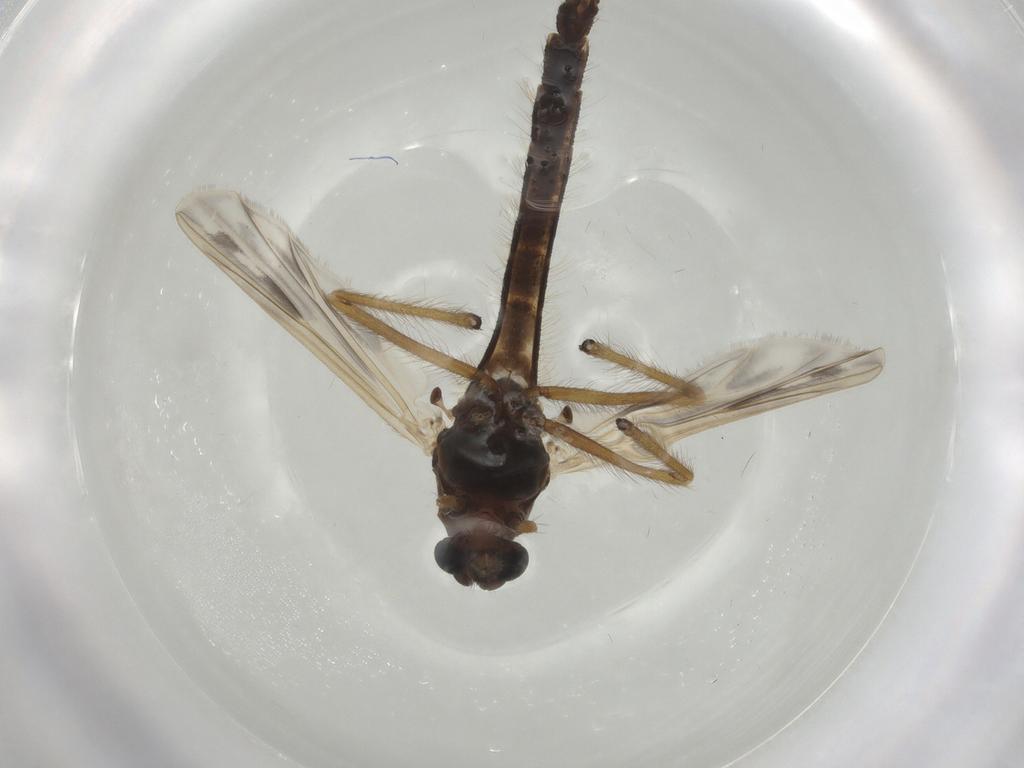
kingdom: Animalia
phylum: Arthropoda
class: Insecta
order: Diptera
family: Chironomidae
